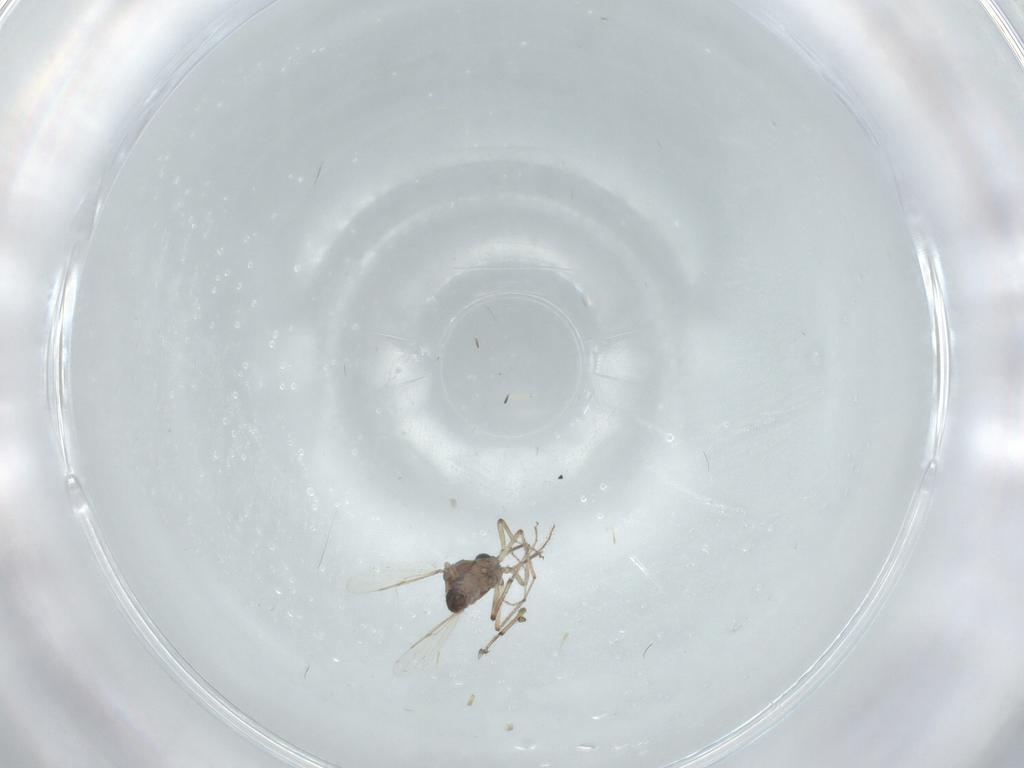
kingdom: Animalia
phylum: Arthropoda
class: Insecta
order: Diptera
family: Ceratopogonidae
